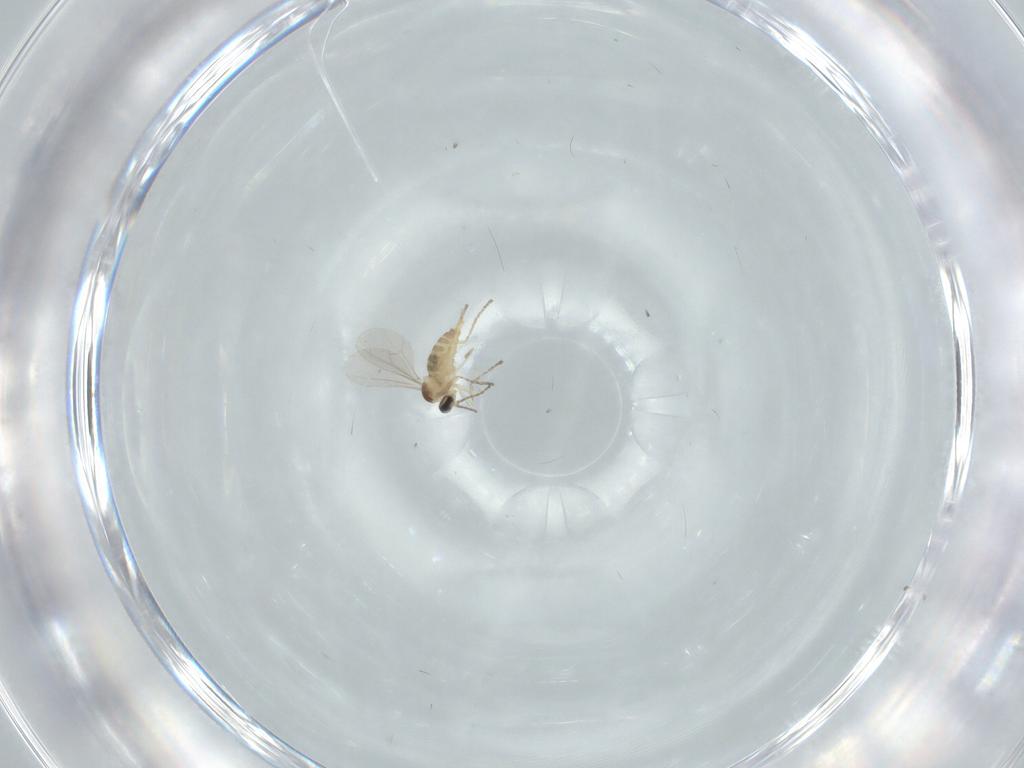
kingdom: Animalia
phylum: Arthropoda
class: Insecta
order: Diptera
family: Cecidomyiidae
